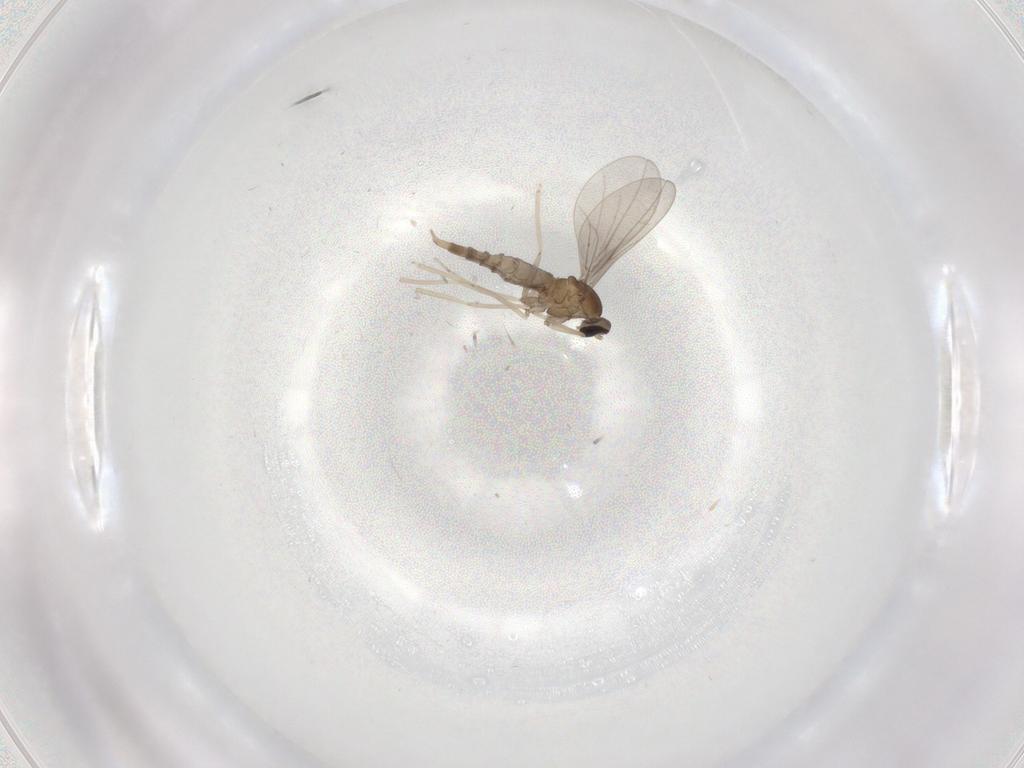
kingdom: Animalia
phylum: Arthropoda
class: Insecta
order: Diptera
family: Cecidomyiidae
